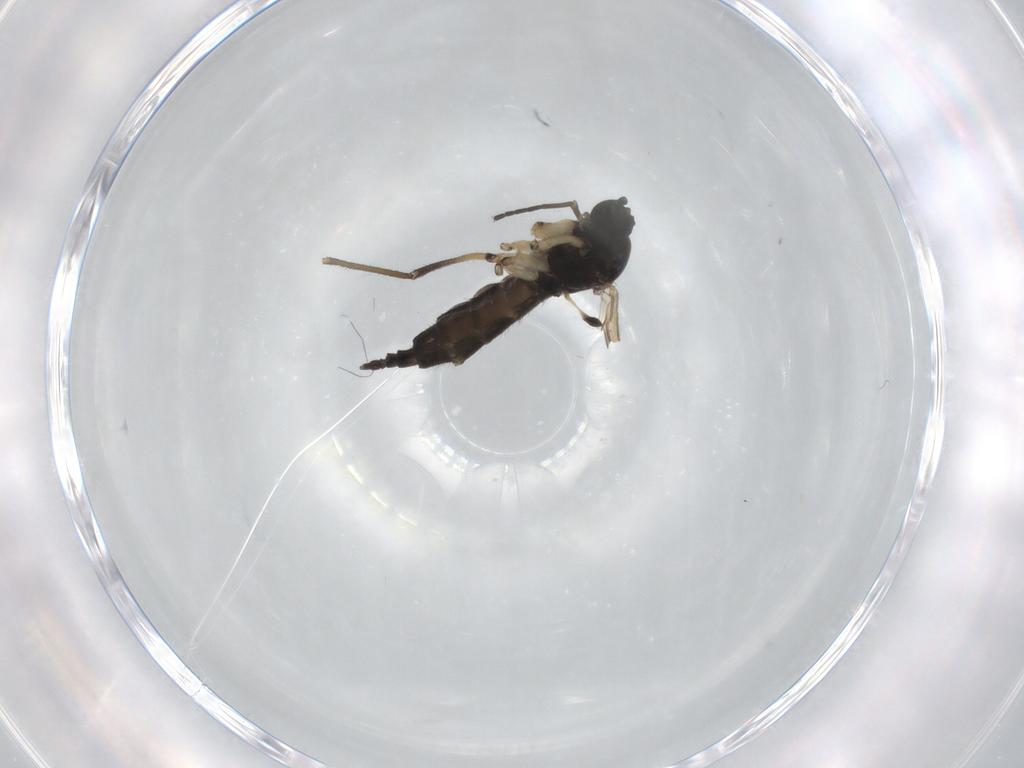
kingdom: Animalia
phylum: Arthropoda
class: Insecta
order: Diptera
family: Sciaridae
